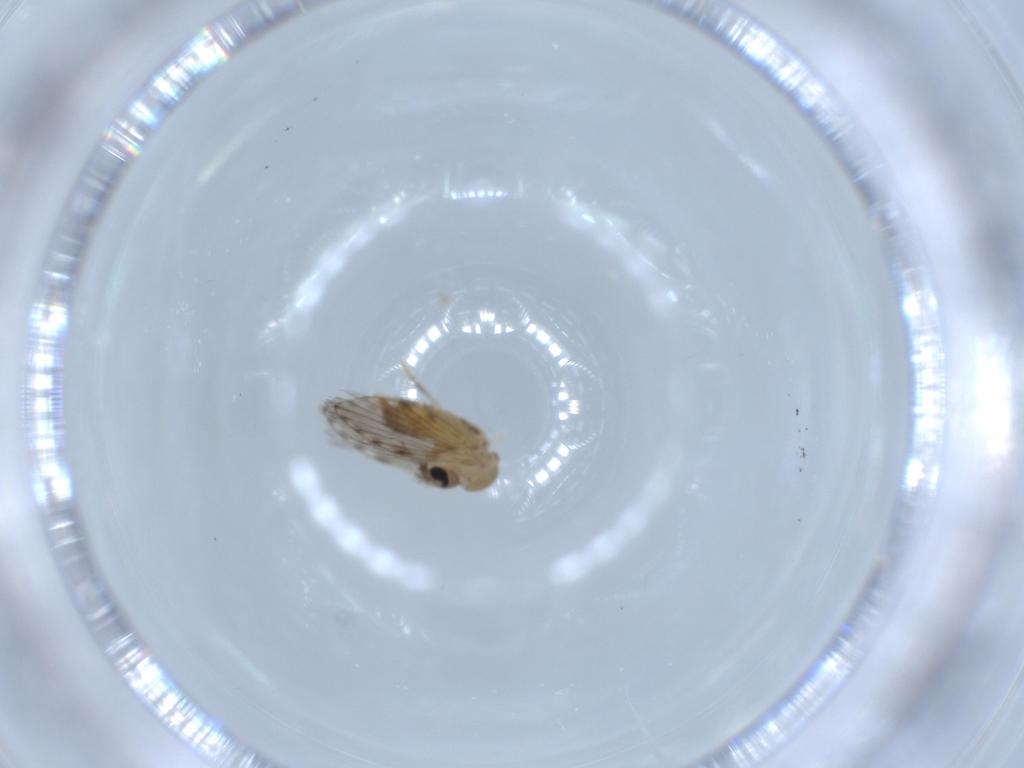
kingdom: Animalia
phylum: Arthropoda
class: Insecta
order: Diptera
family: Psychodidae
